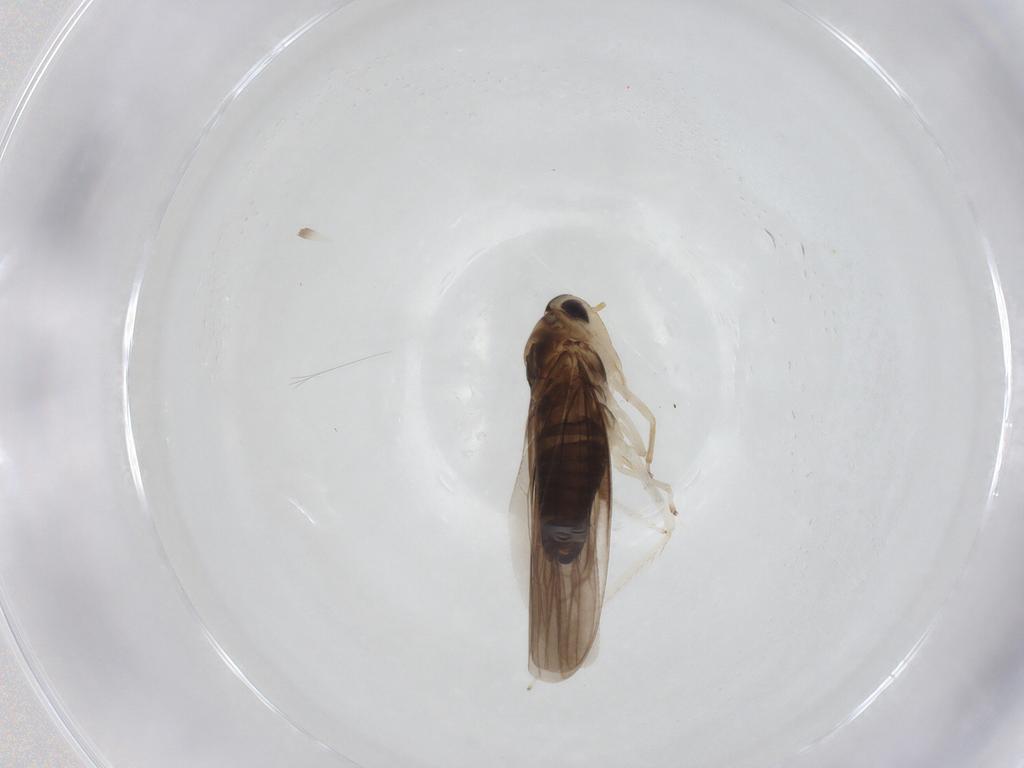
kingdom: Animalia
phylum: Arthropoda
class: Insecta
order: Hemiptera
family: Cicadellidae
